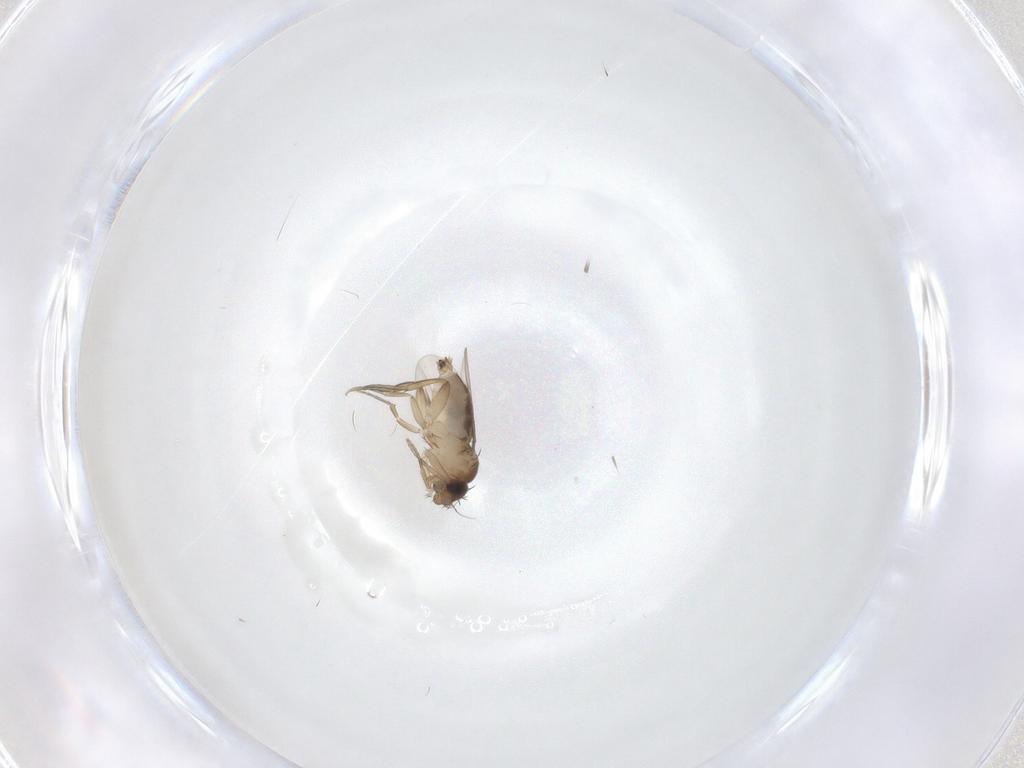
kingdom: Animalia
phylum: Arthropoda
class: Insecta
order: Diptera
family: Phoridae
